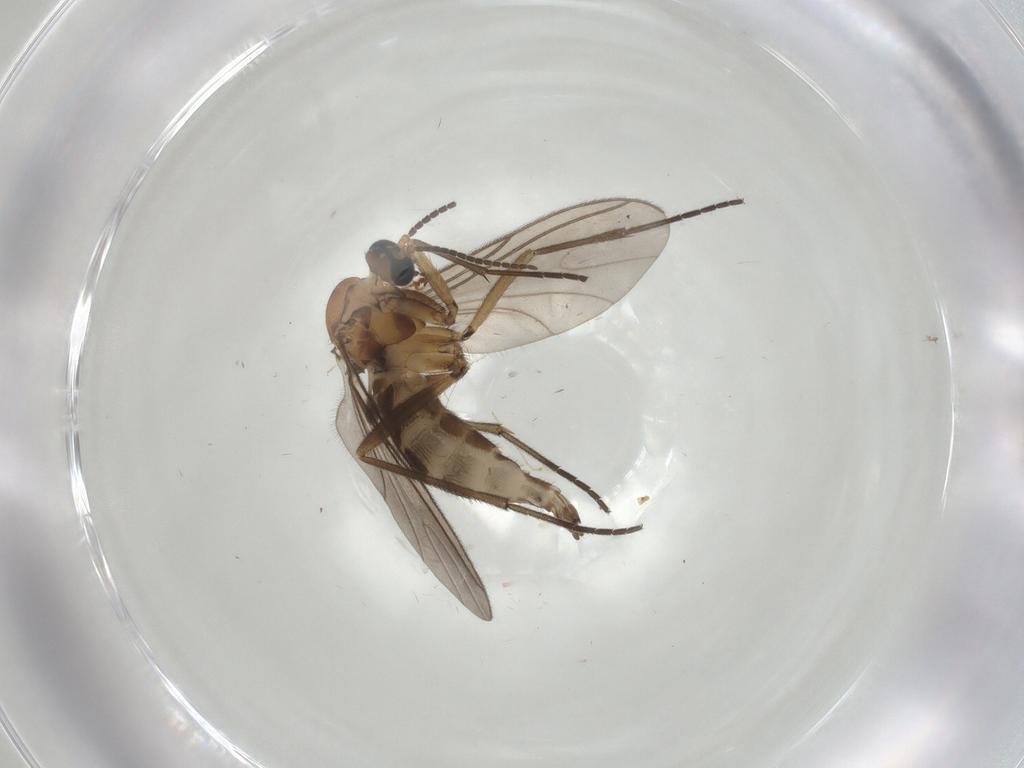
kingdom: Animalia
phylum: Arthropoda
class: Insecta
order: Diptera
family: Sciaridae
